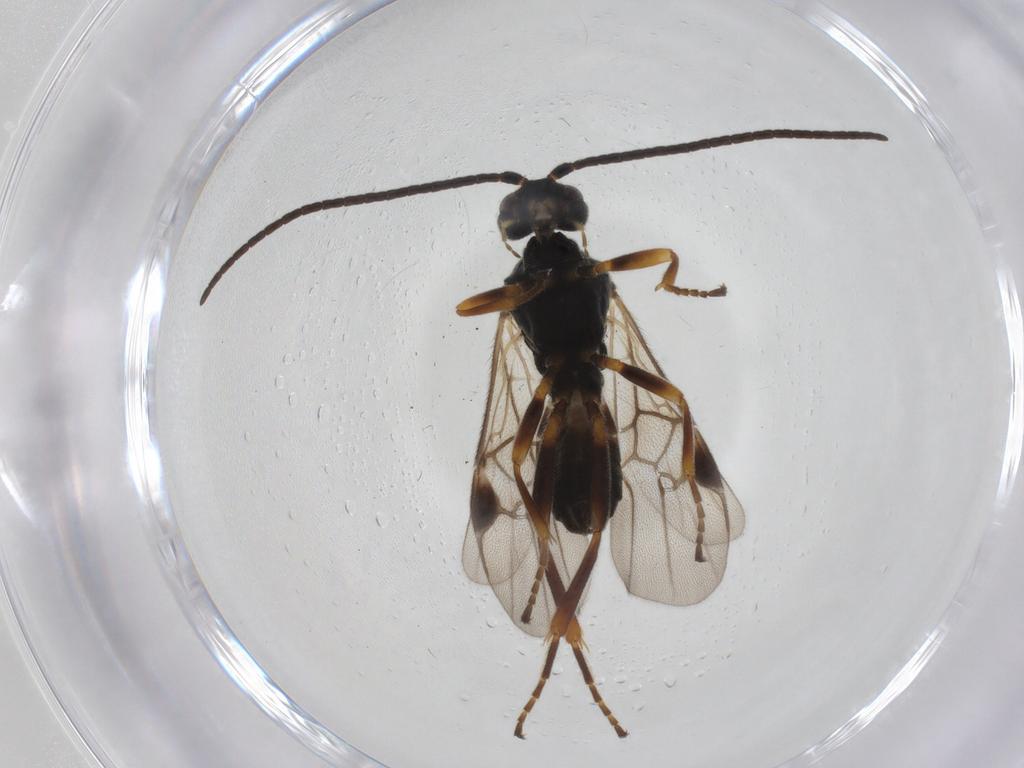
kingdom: Animalia
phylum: Arthropoda
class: Insecta
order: Hymenoptera
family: Braconidae
